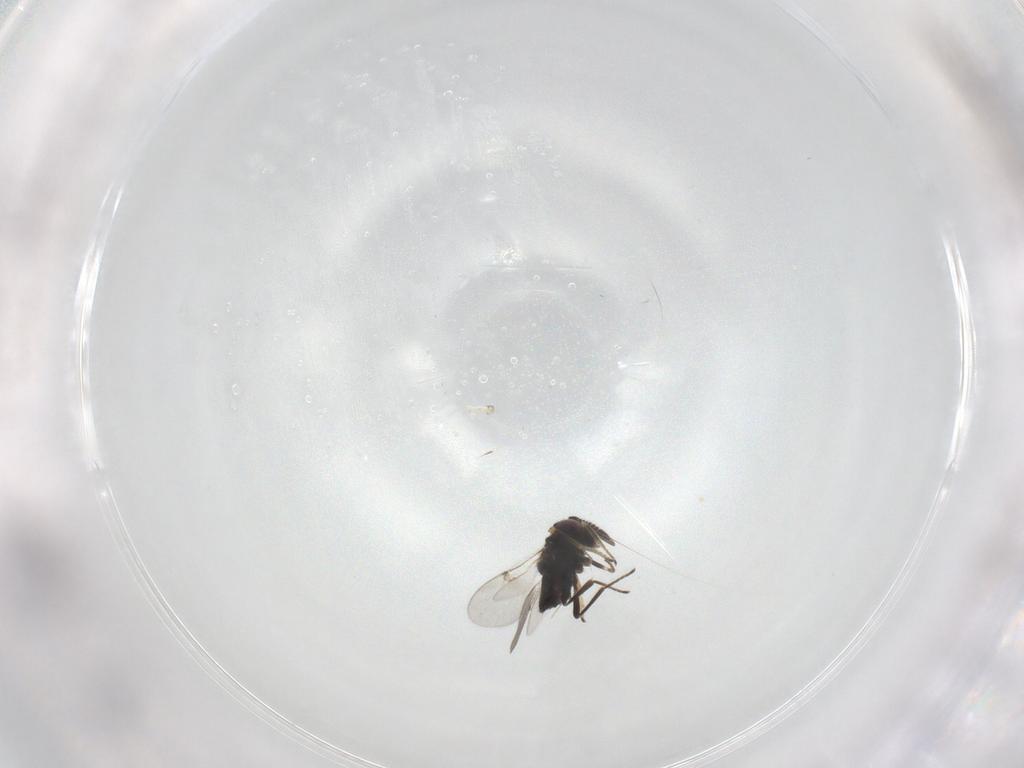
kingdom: Animalia
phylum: Arthropoda
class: Insecta
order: Hymenoptera
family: Encyrtidae
